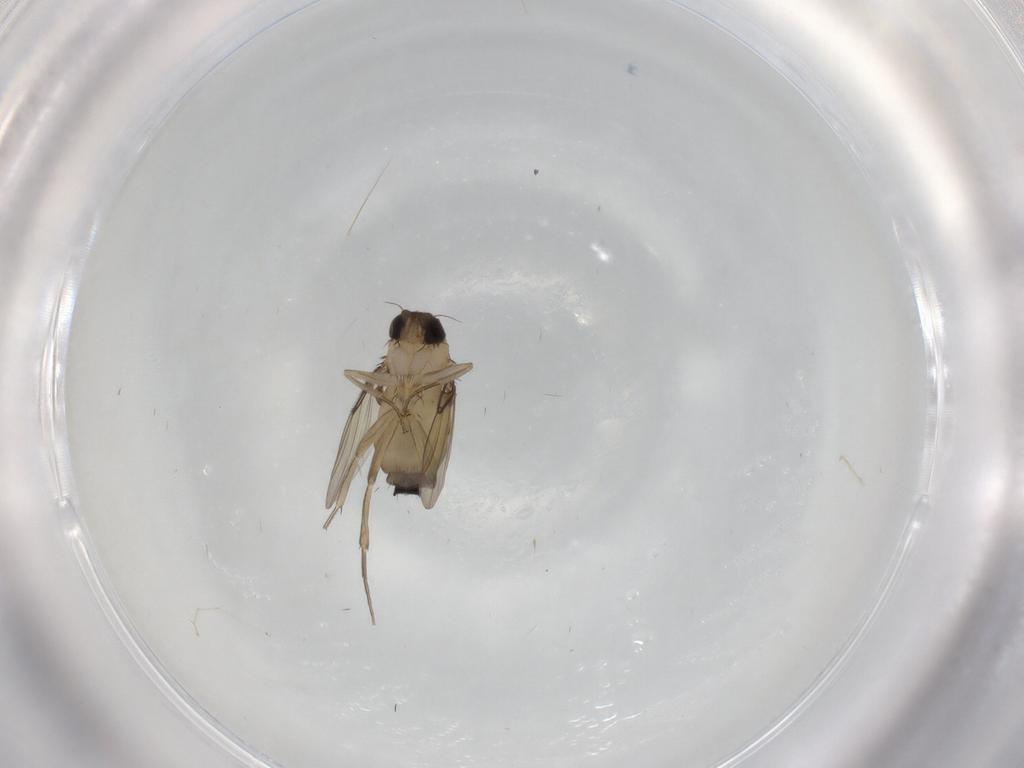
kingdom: Animalia
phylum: Arthropoda
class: Insecta
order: Diptera
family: Phoridae
